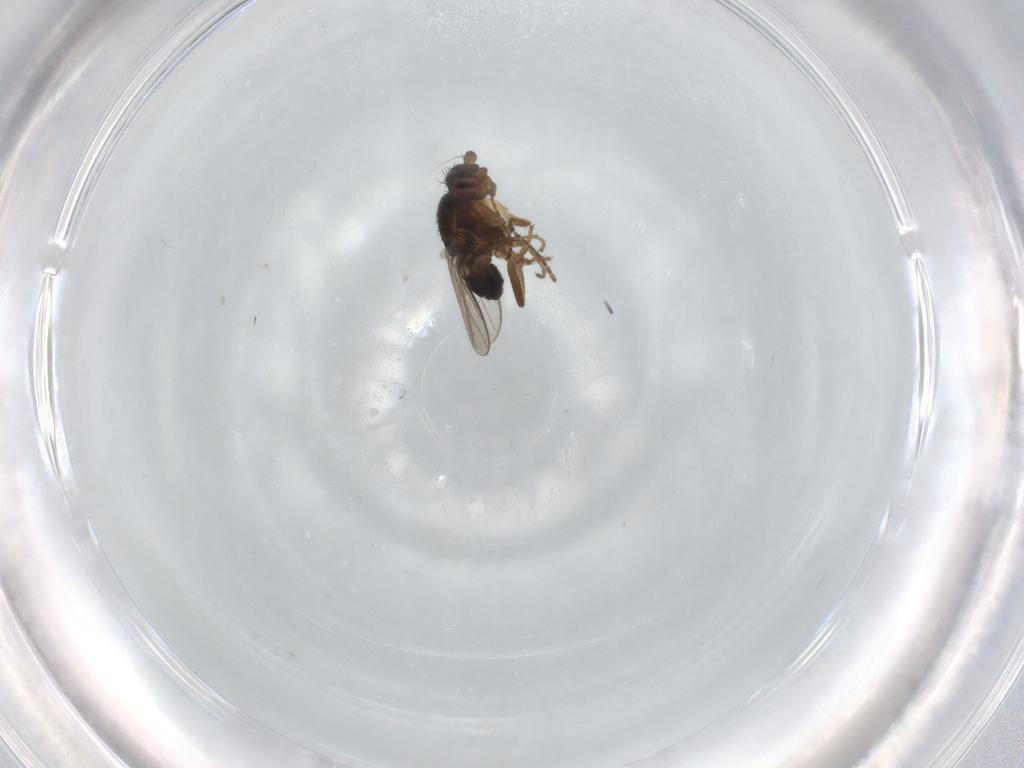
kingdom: Animalia
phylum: Arthropoda
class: Insecta
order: Diptera
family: Sphaeroceridae
